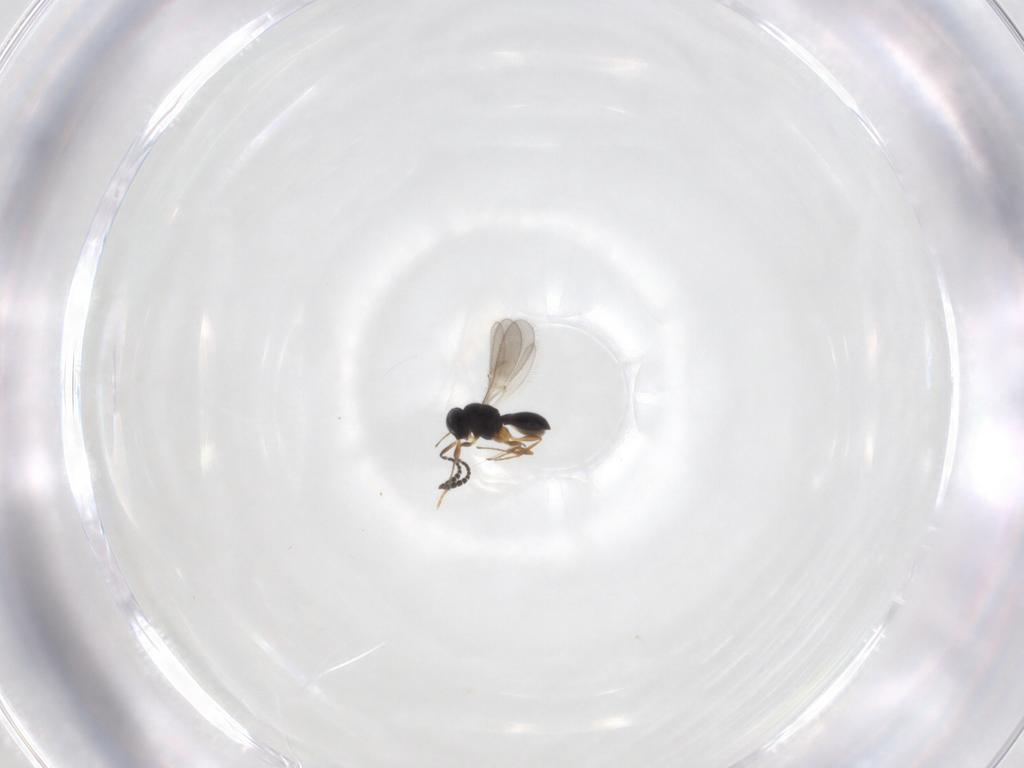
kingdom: Animalia
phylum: Arthropoda
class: Insecta
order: Hymenoptera
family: Scelionidae
